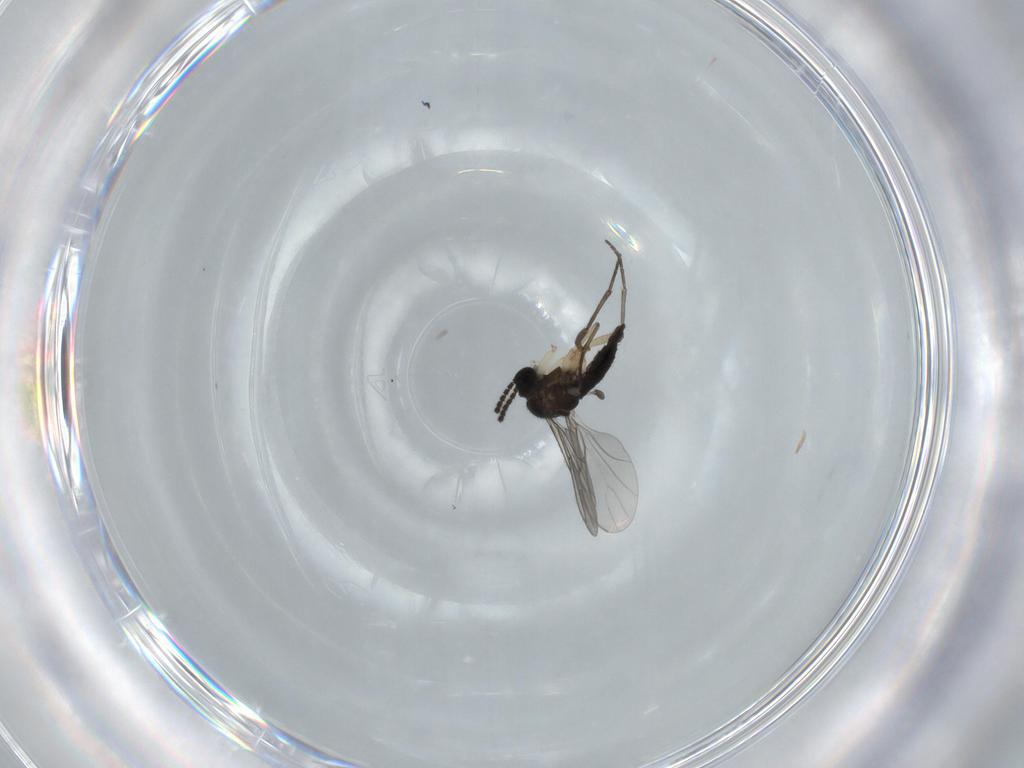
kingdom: Animalia
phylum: Arthropoda
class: Insecta
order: Diptera
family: Sciaridae
